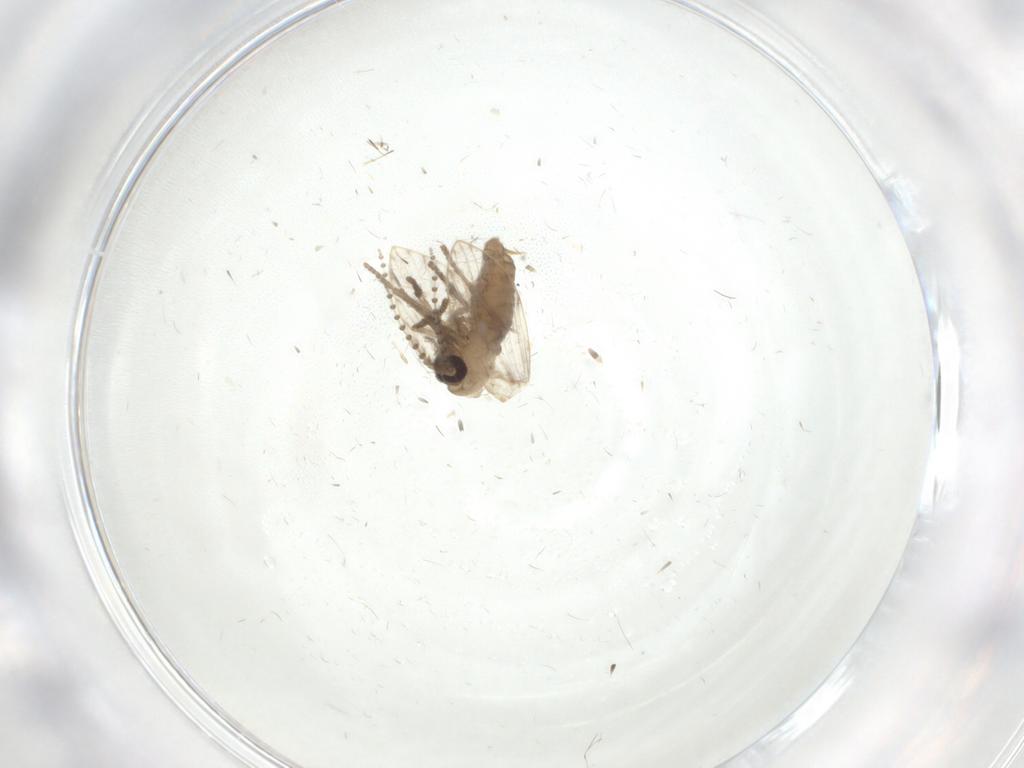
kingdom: Animalia
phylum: Arthropoda
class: Insecta
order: Diptera
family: Psychodidae
